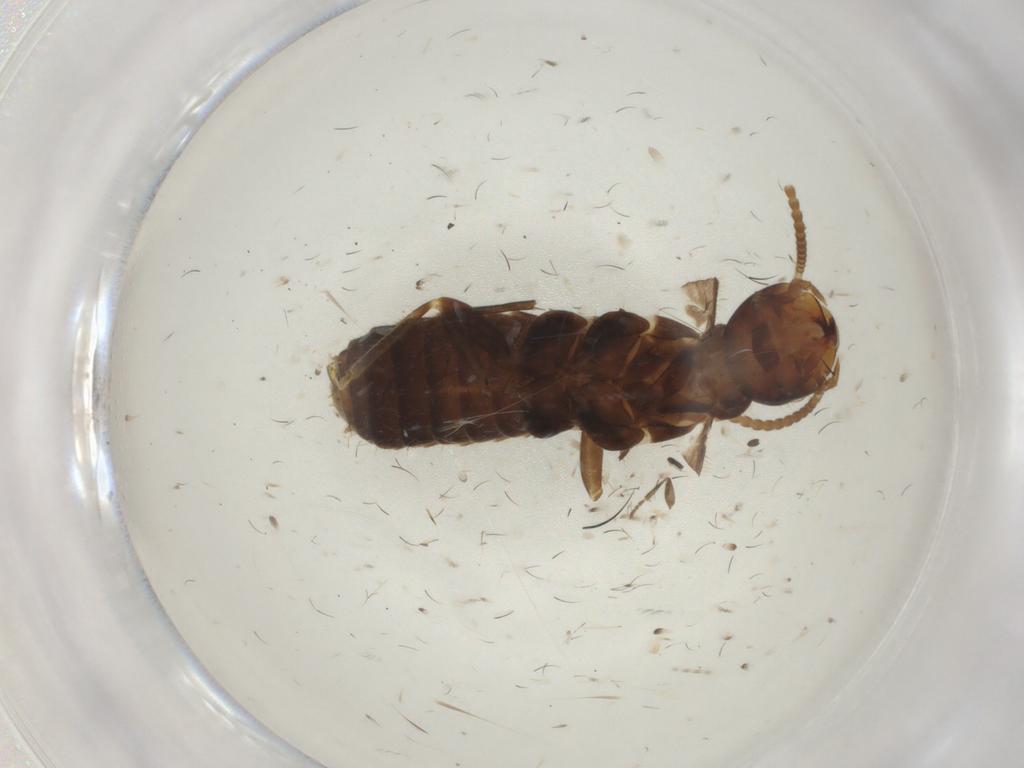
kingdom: Animalia
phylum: Arthropoda
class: Insecta
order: Blattodea
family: Rhinotermitidae
